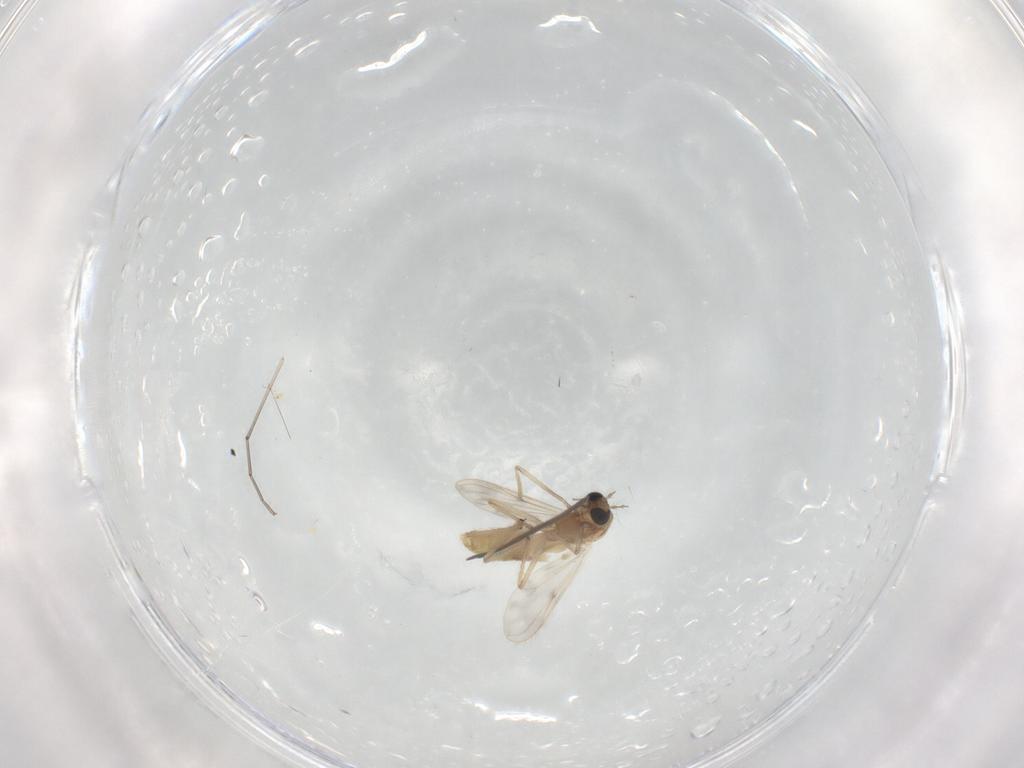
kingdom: Animalia
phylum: Arthropoda
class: Insecta
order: Diptera
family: Chironomidae
